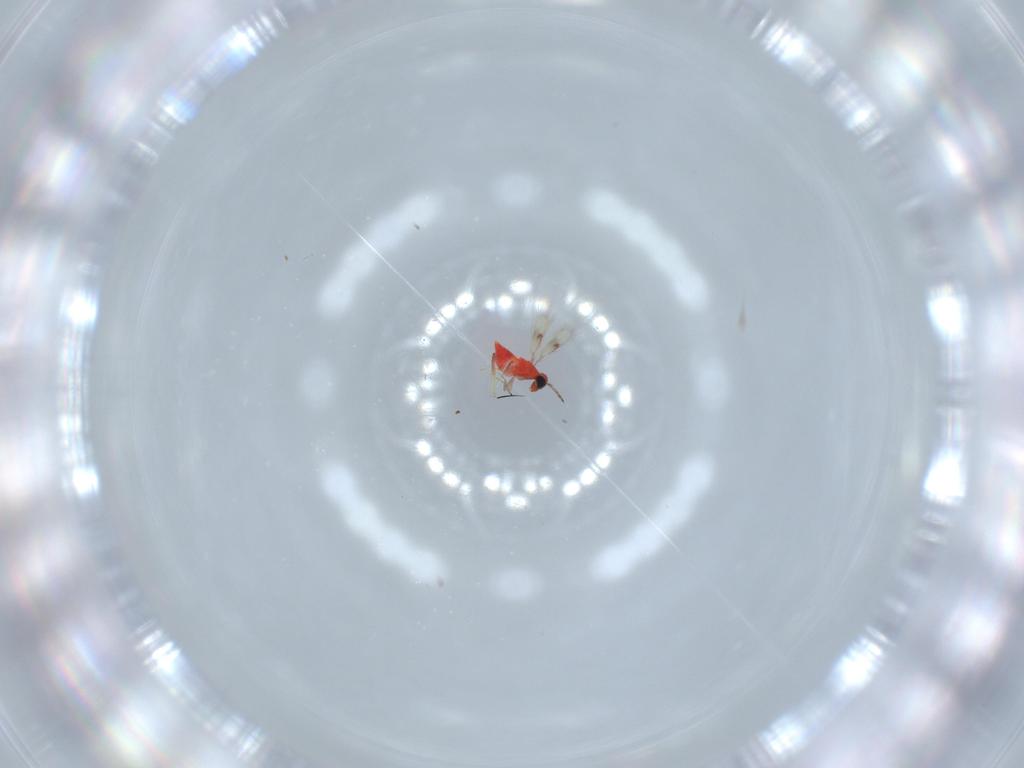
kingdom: Animalia
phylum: Arthropoda
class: Insecta
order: Hymenoptera
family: Trichogrammatidae
